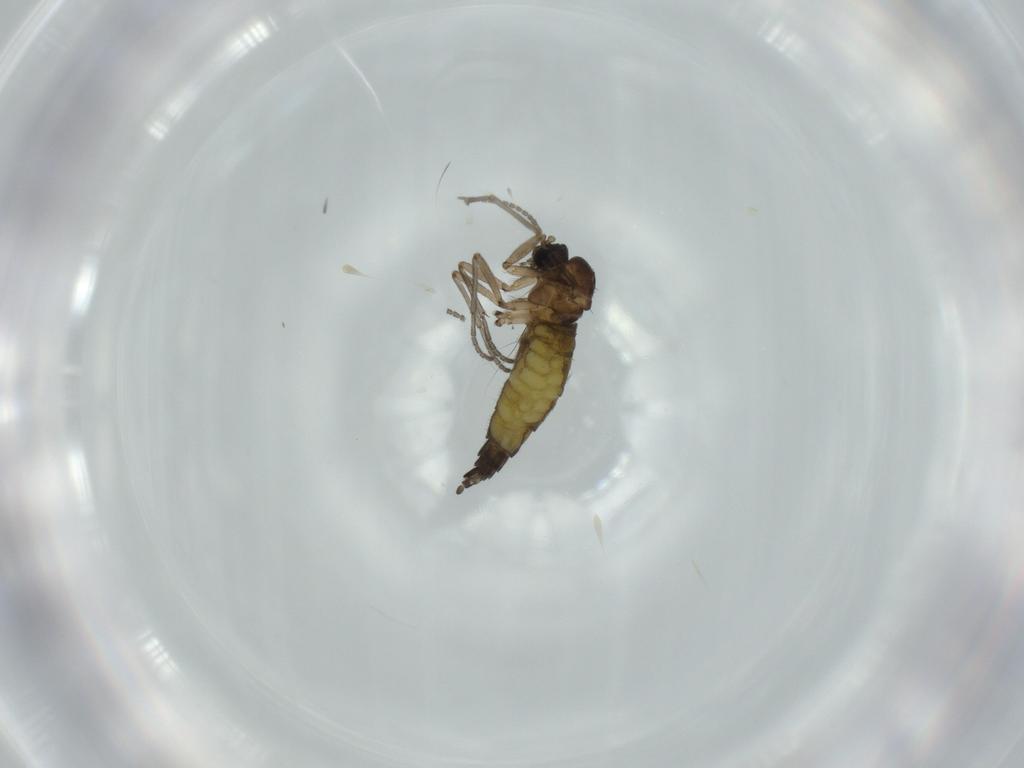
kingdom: Animalia
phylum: Arthropoda
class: Insecta
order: Diptera
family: Sciaridae
